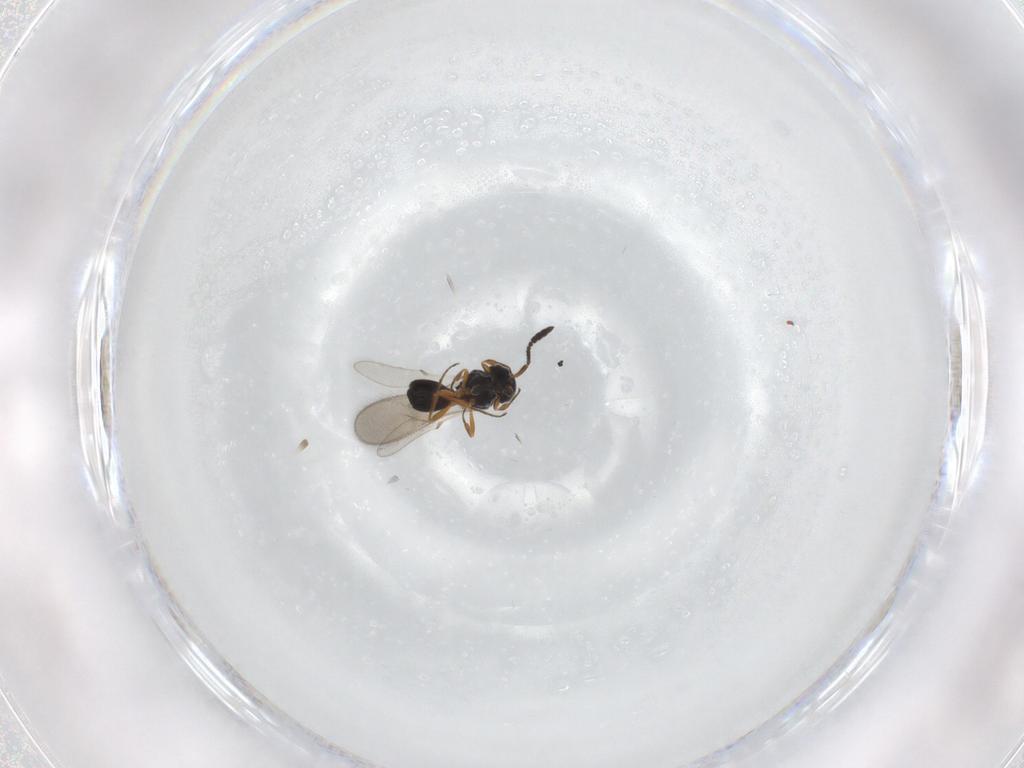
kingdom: Animalia
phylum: Arthropoda
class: Insecta
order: Hymenoptera
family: Scelionidae
